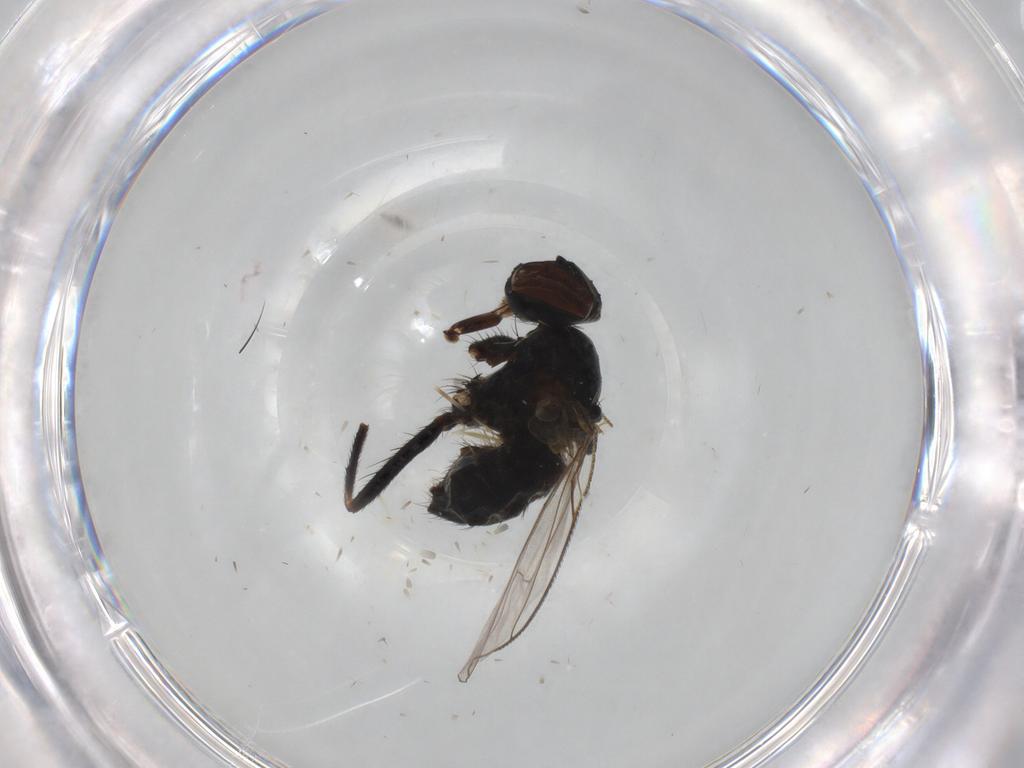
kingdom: Animalia
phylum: Arthropoda
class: Insecta
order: Diptera
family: Muscidae
